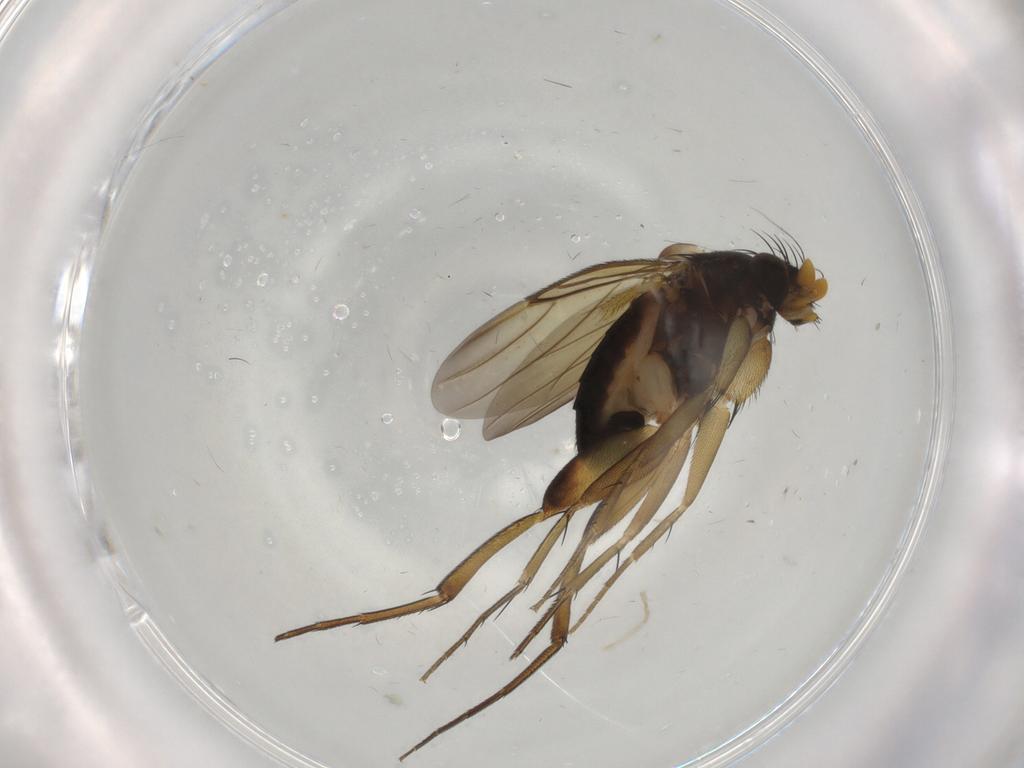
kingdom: Animalia
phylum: Arthropoda
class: Insecta
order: Diptera
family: Phoridae
